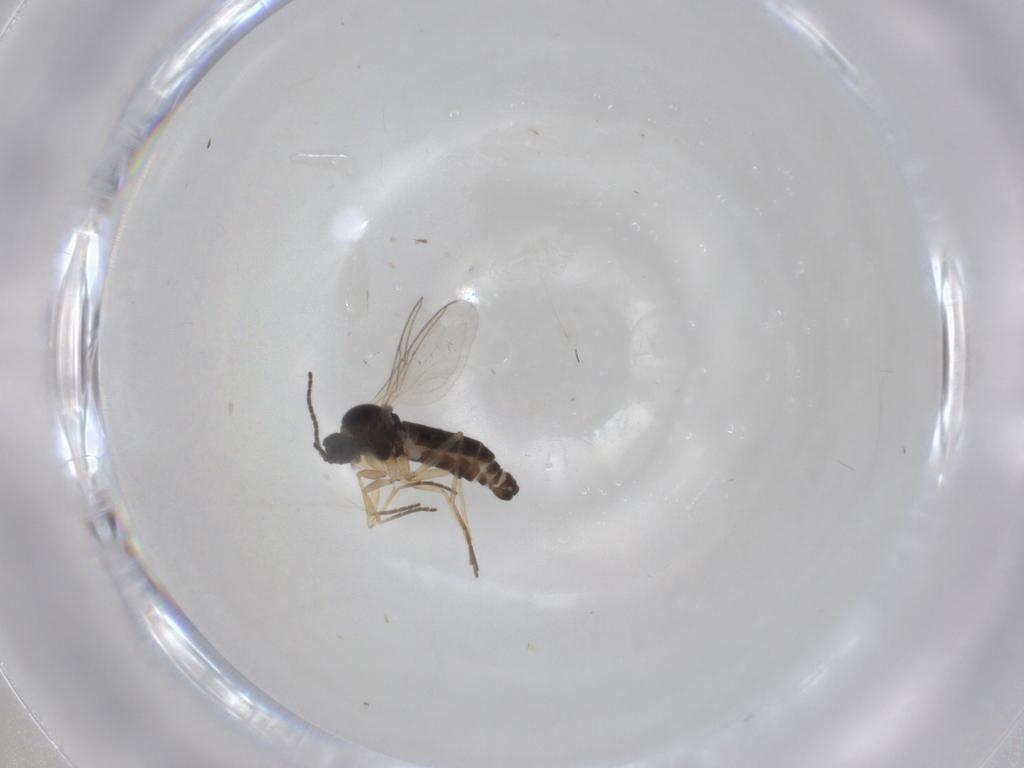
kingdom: Animalia
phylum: Arthropoda
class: Insecta
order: Diptera
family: Sciaridae
